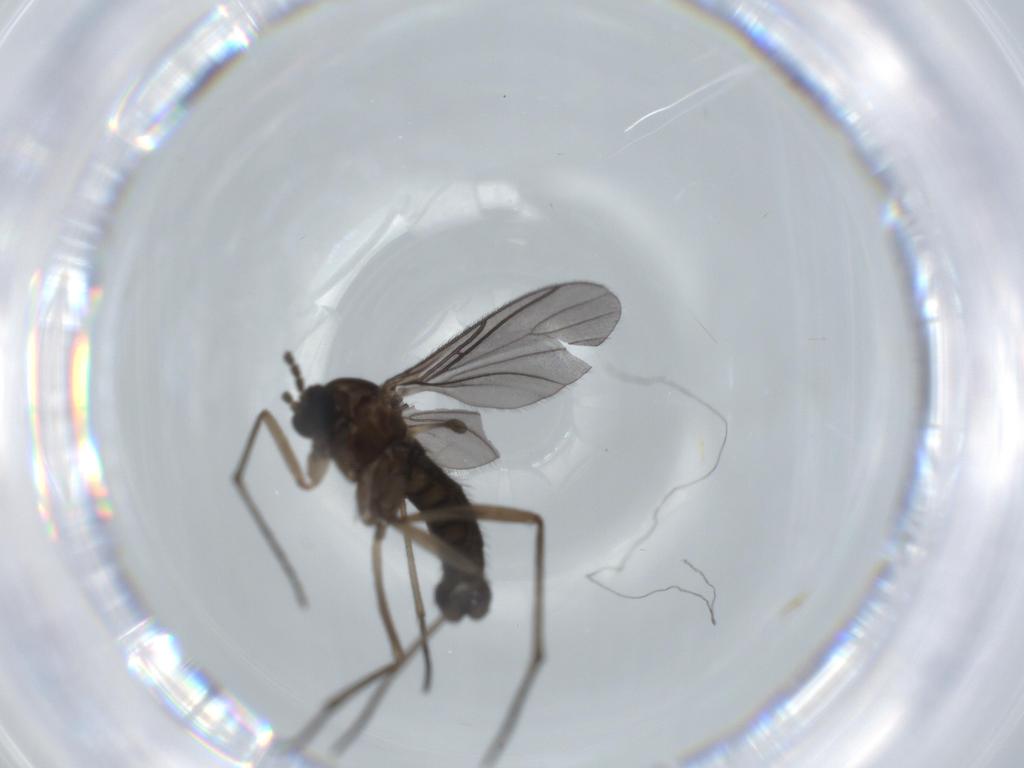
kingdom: Animalia
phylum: Arthropoda
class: Insecta
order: Diptera
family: Sciaridae
